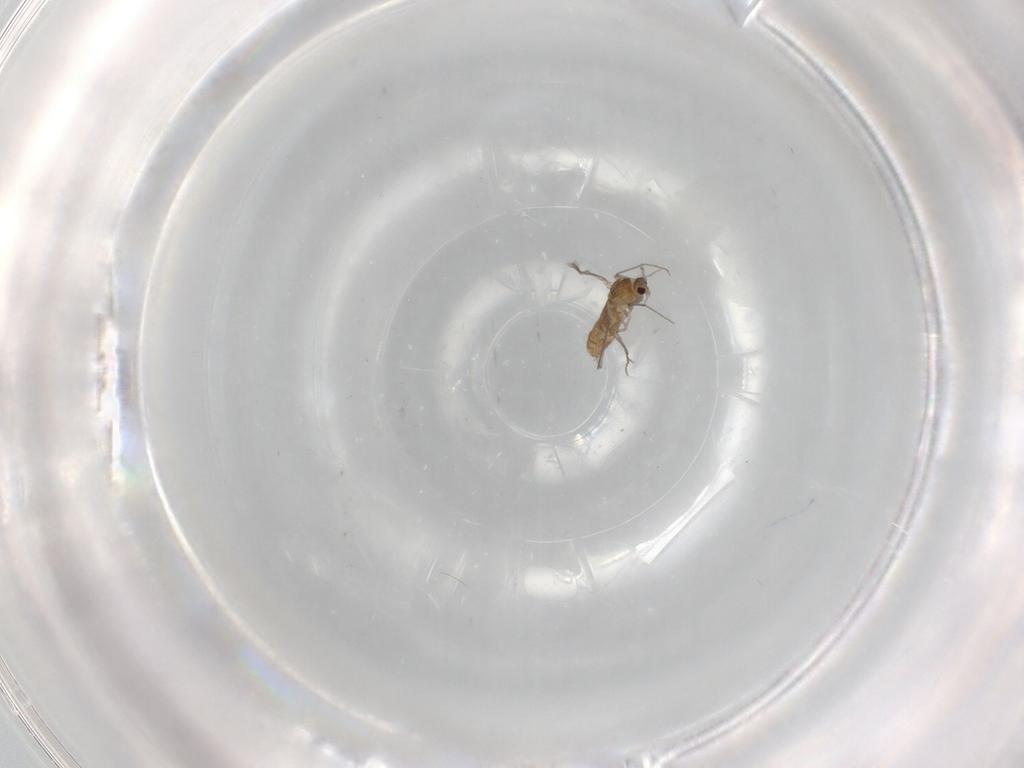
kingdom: Animalia
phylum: Arthropoda
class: Insecta
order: Diptera
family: Chironomidae
